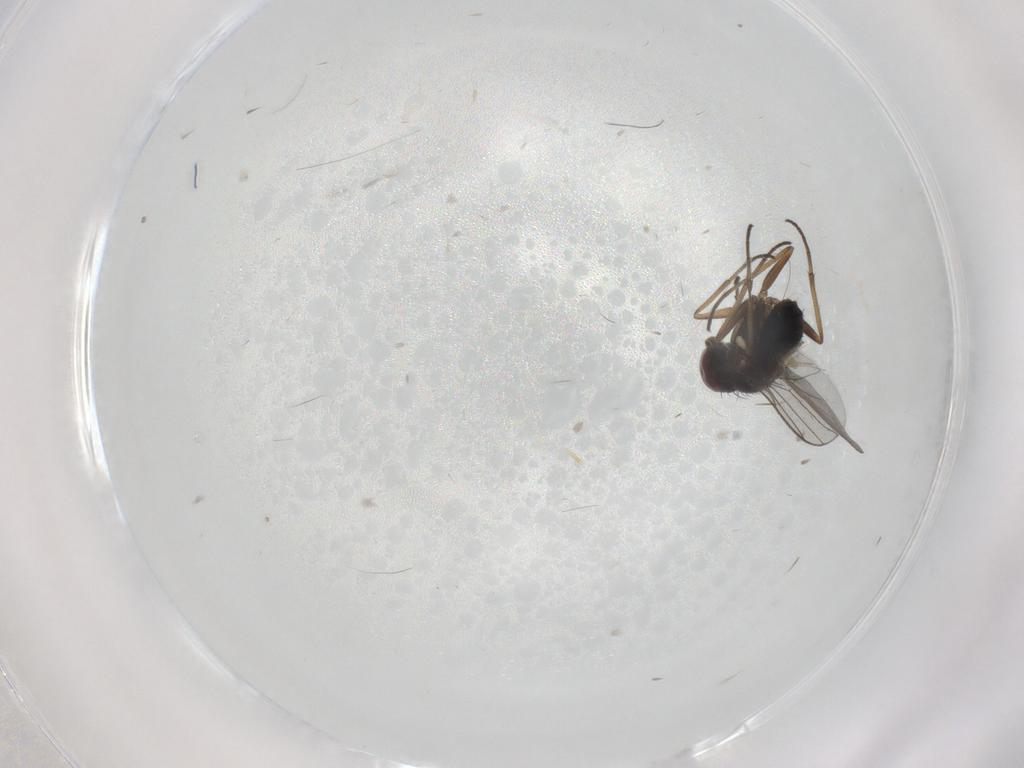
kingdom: Animalia
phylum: Arthropoda
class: Insecta
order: Diptera
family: Dolichopodidae
